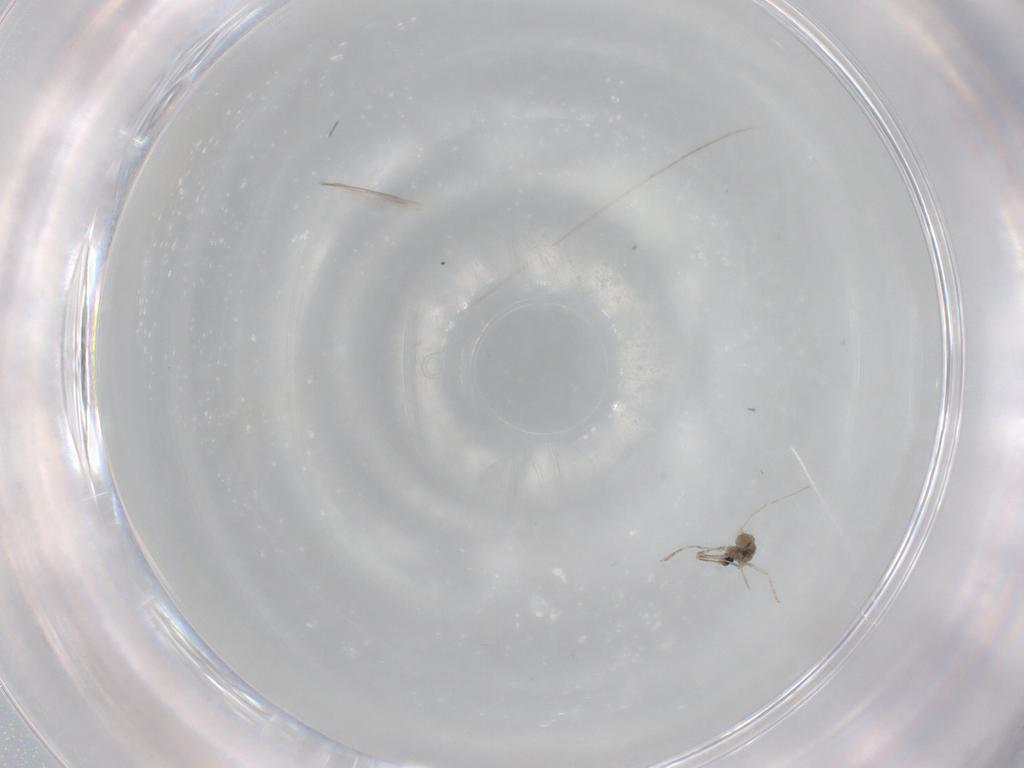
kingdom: Animalia
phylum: Arthropoda
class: Insecta
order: Diptera
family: Cecidomyiidae
